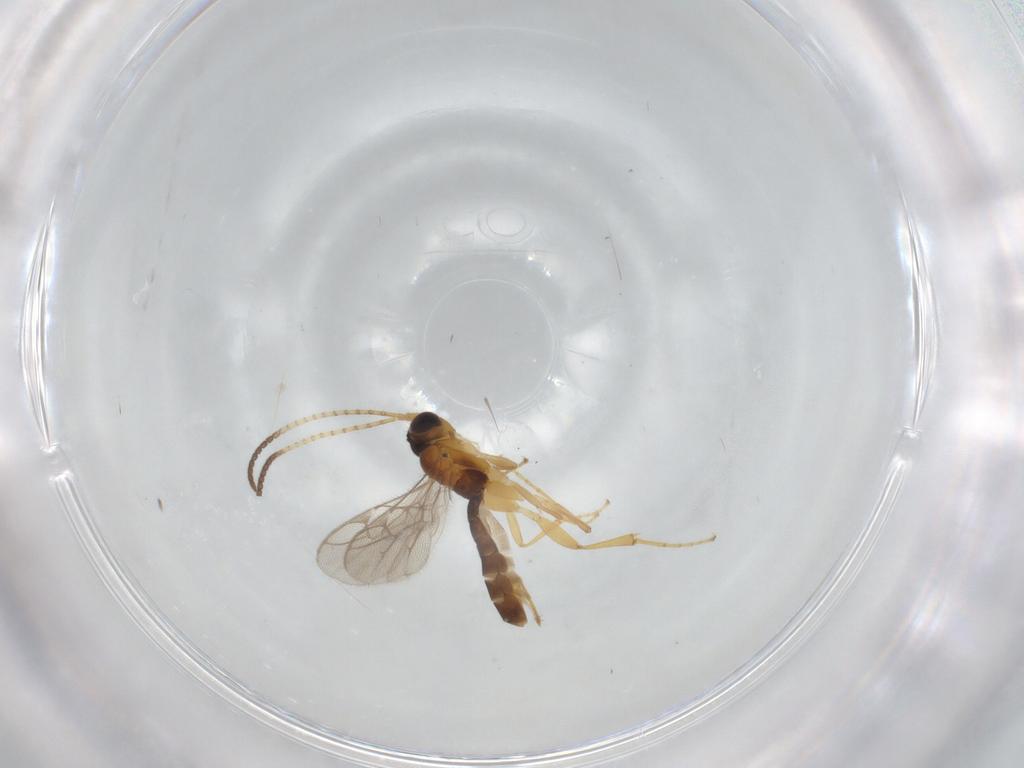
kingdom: Animalia
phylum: Arthropoda
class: Insecta
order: Hymenoptera
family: Ichneumonidae
